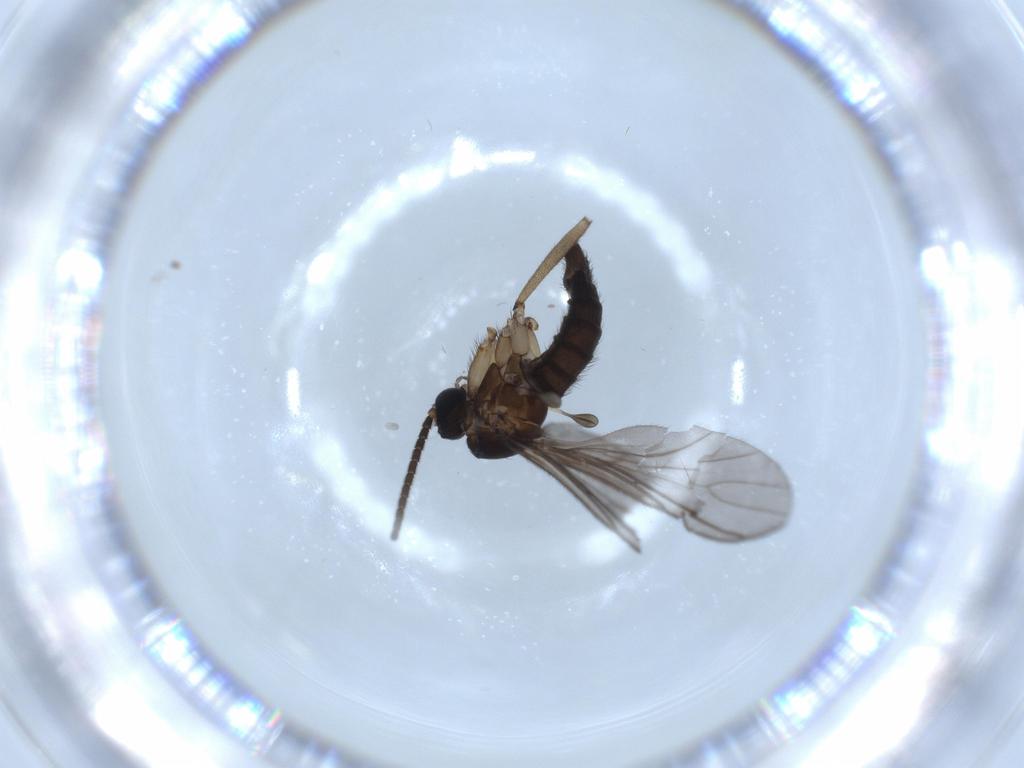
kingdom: Animalia
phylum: Arthropoda
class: Insecta
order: Diptera
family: Sciaridae
